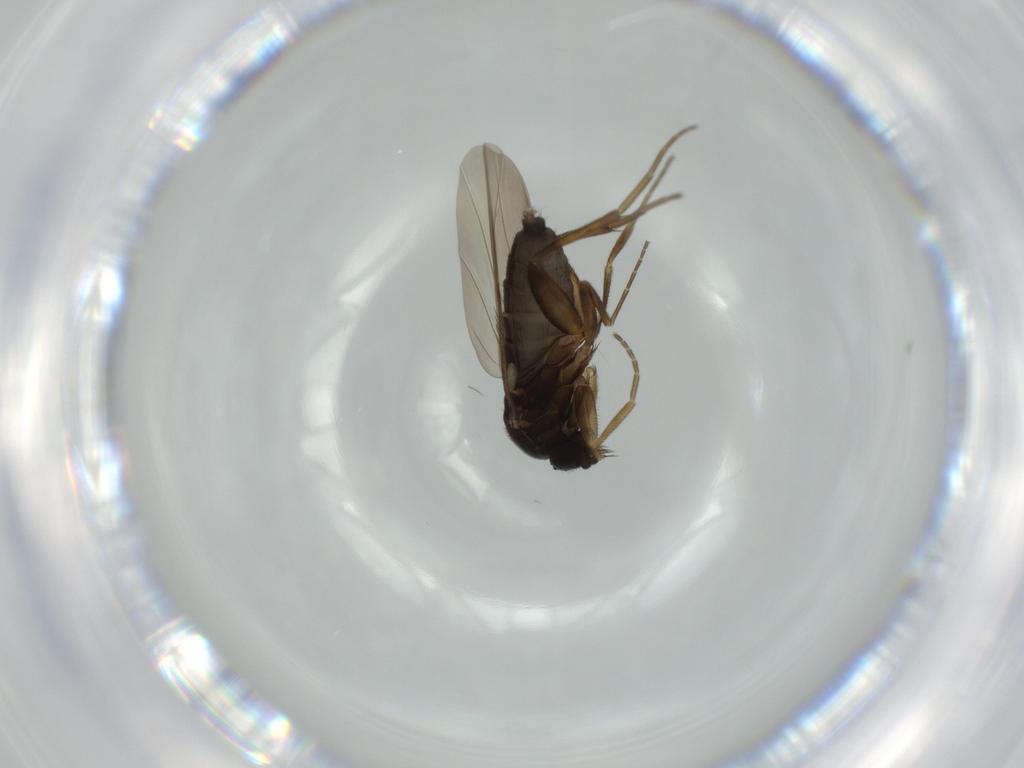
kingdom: Animalia
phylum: Arthropoda
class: Insecta
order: Diptera
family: Phoridae
